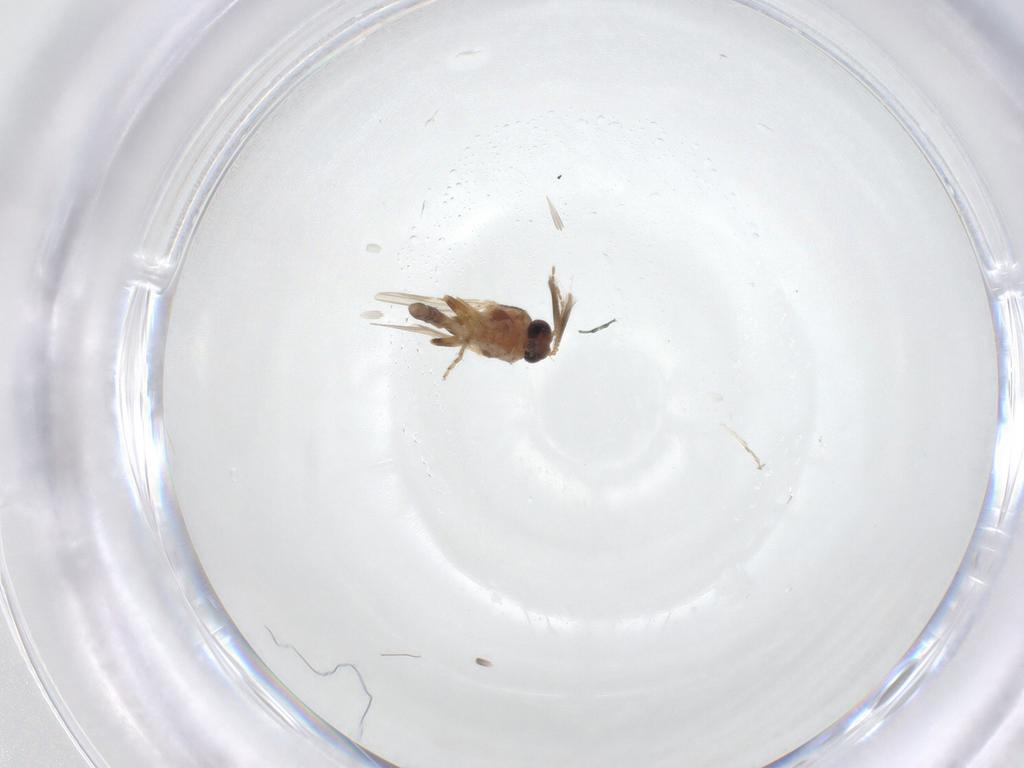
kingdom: Animalia
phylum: Arthropoda
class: Insecta
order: Diptera
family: Ceratopogonidae
